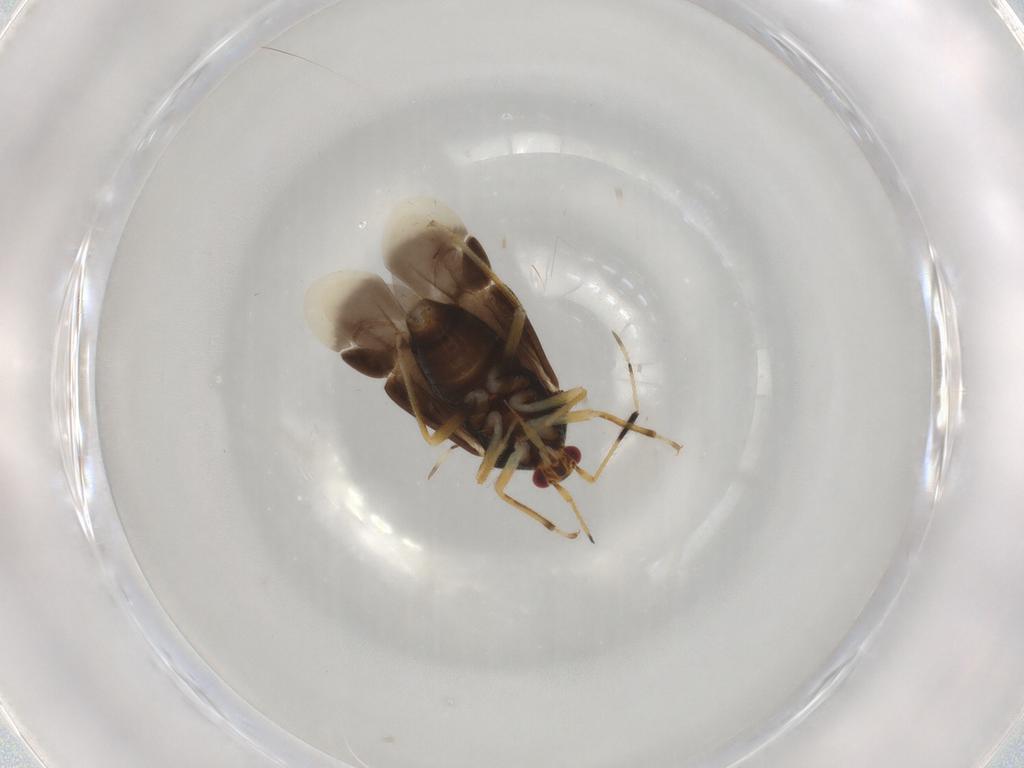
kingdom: Animalia
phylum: Arthropoda
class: Insecta
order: Hemiptera
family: Miridae
